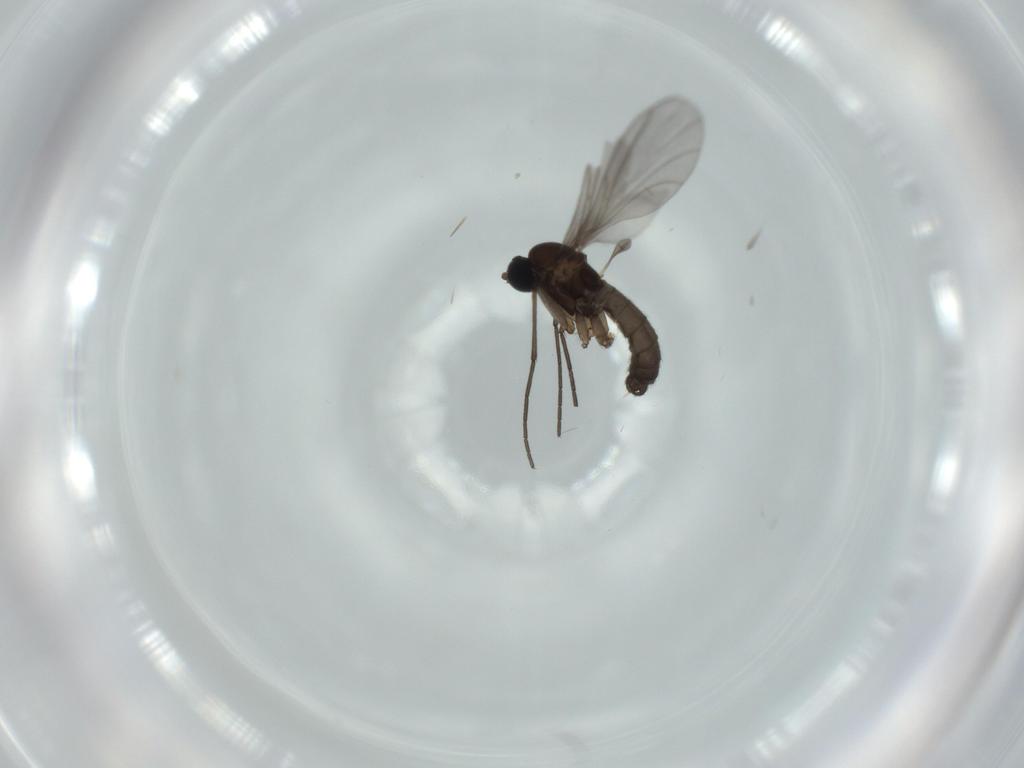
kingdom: Animalia
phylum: Arthropoda
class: Insecta
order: Diptera
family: Sciaridae
